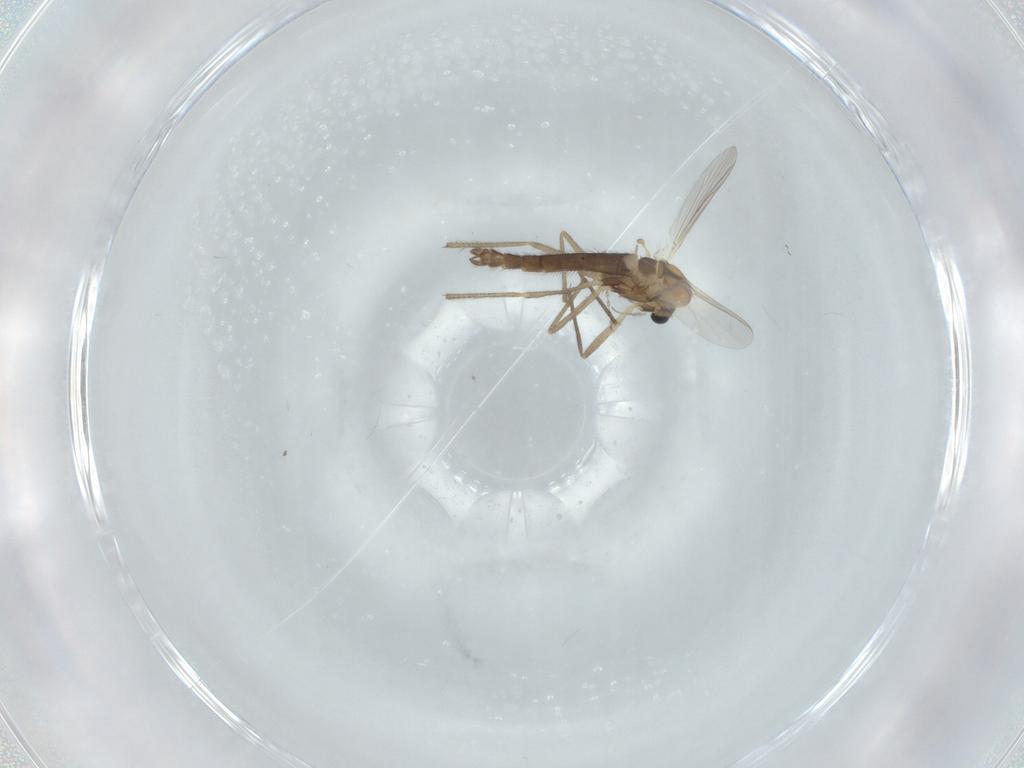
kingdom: Animalia
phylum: Arthropoda
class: Insecta
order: Diptera
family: Chironomidae
